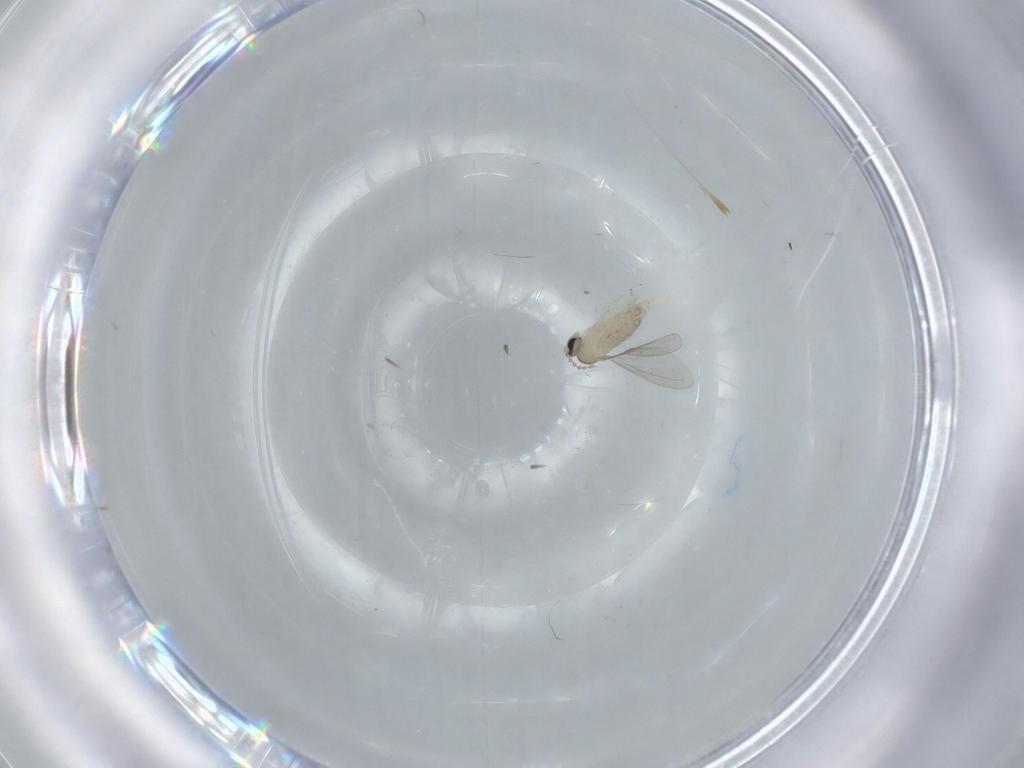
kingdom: Animalia
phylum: Arthropoda
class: Insecta
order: Diptera
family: Cecidomyiidae
